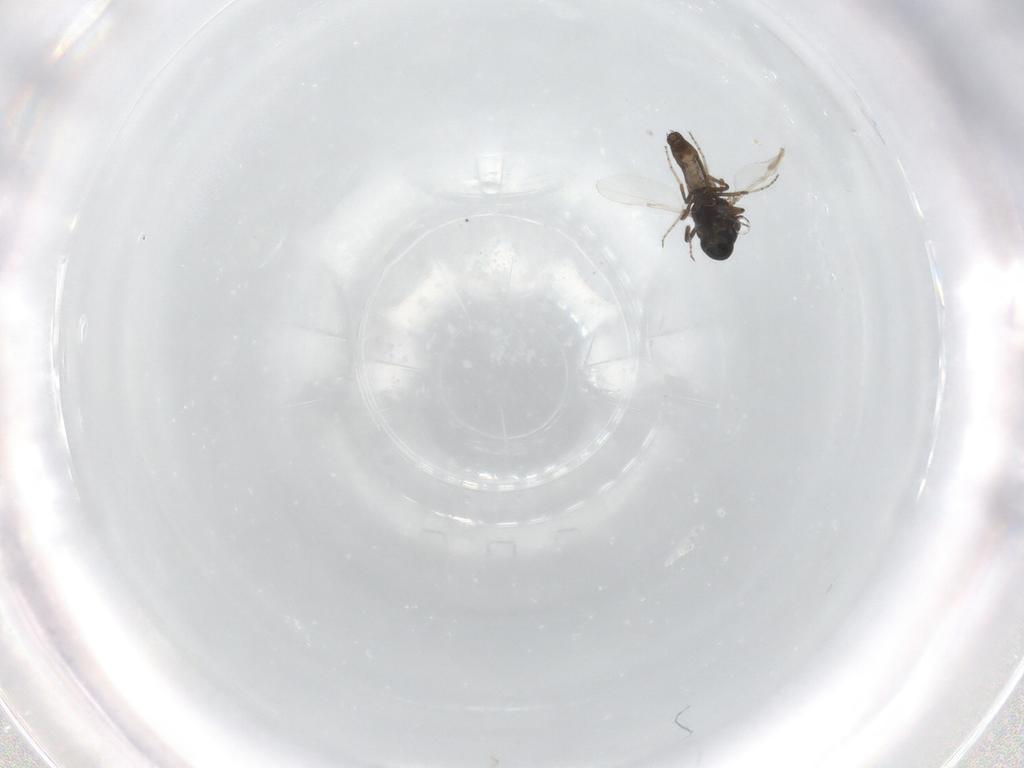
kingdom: Animalia
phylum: Arthropoda
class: Insecta
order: Diptera
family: Ceratopogonidae
